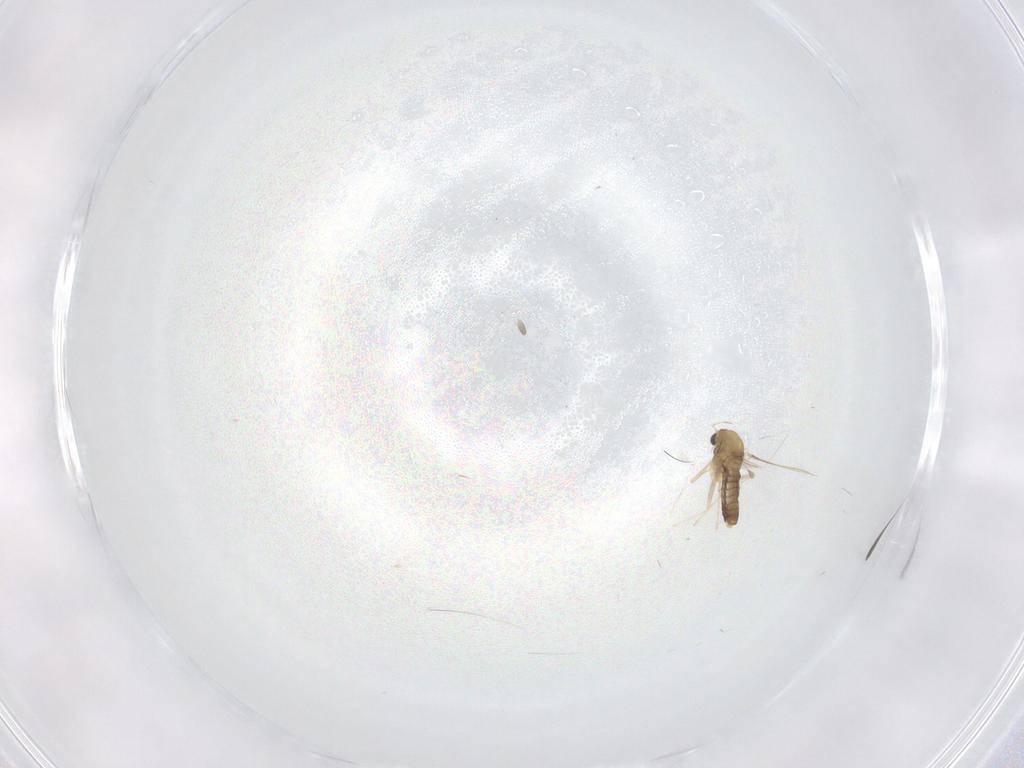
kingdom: Animalia
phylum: Arthropoda
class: Insecta
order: Diptera
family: Chironomidae
